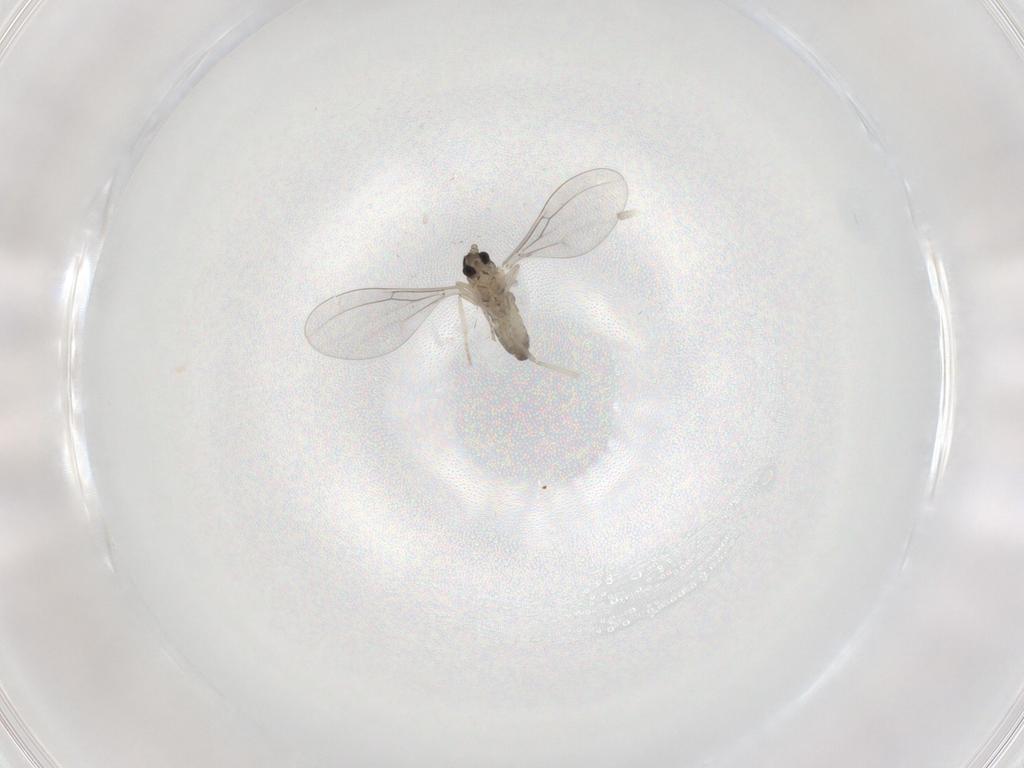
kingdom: Animalia
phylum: Arthropoda
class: Insecta
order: Diptera
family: Cecidomyiidae
